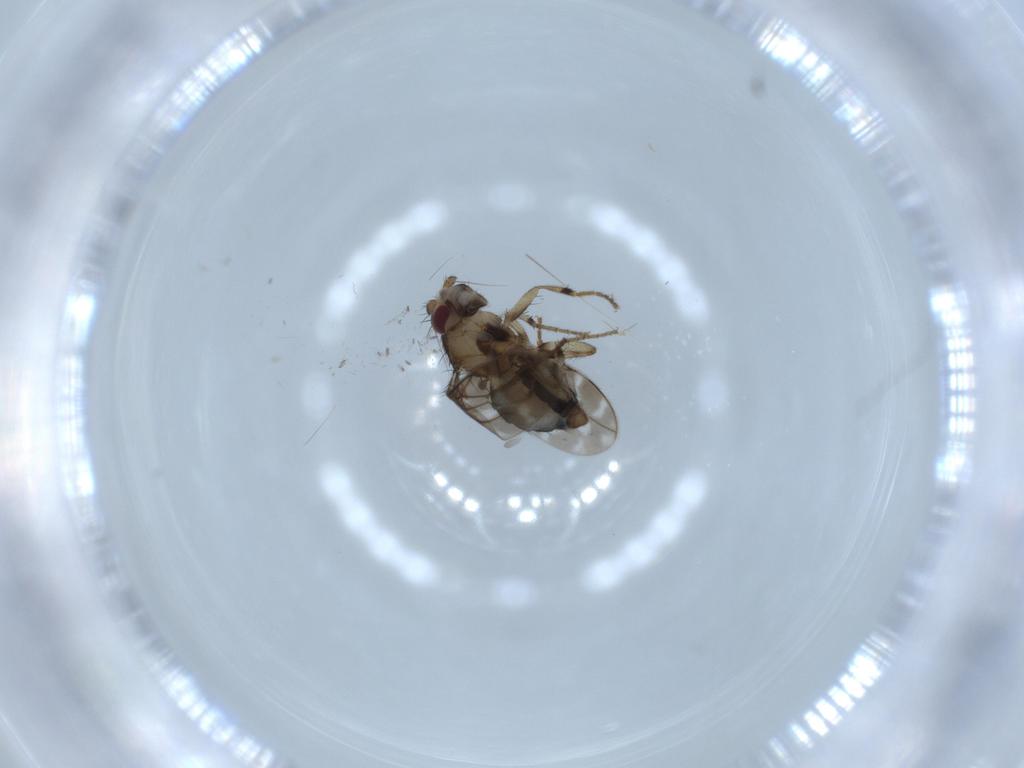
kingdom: Animalia
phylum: Arthropoda
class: Insecta
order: Diptera
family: Sphaeroceridae
